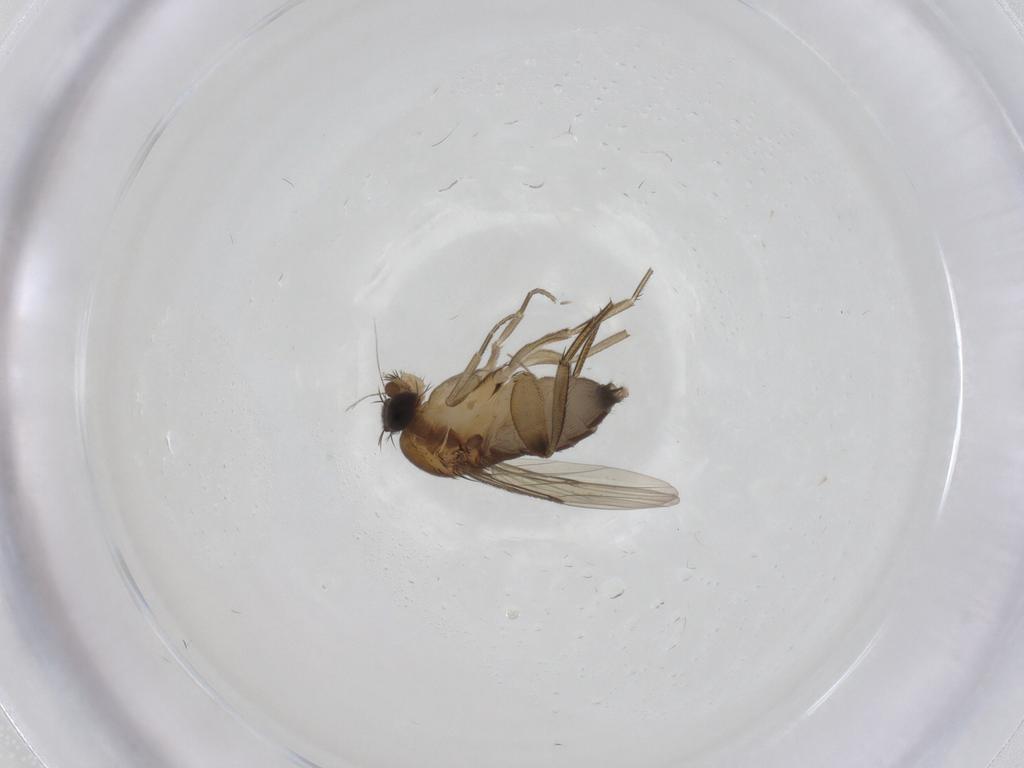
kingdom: Animalia
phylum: Arthropoda
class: Insecta
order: Diptera
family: Phoridae
